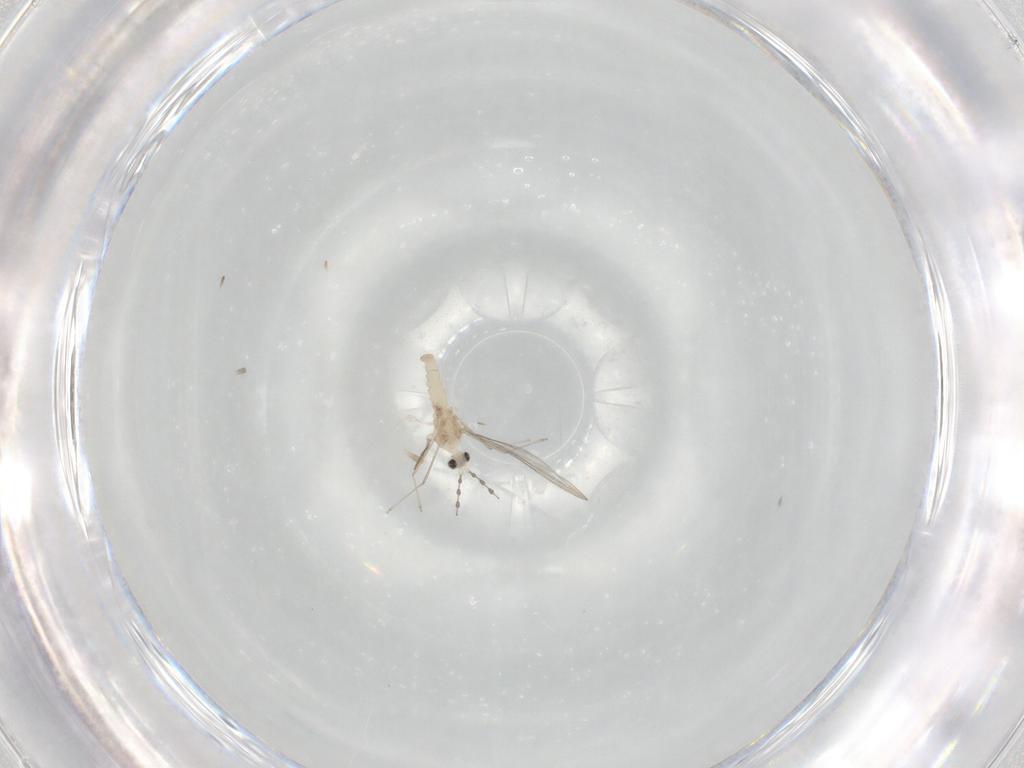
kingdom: Animalia
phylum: Arthropoda
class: Insecta
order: Diptera
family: Cecidomyiidae
